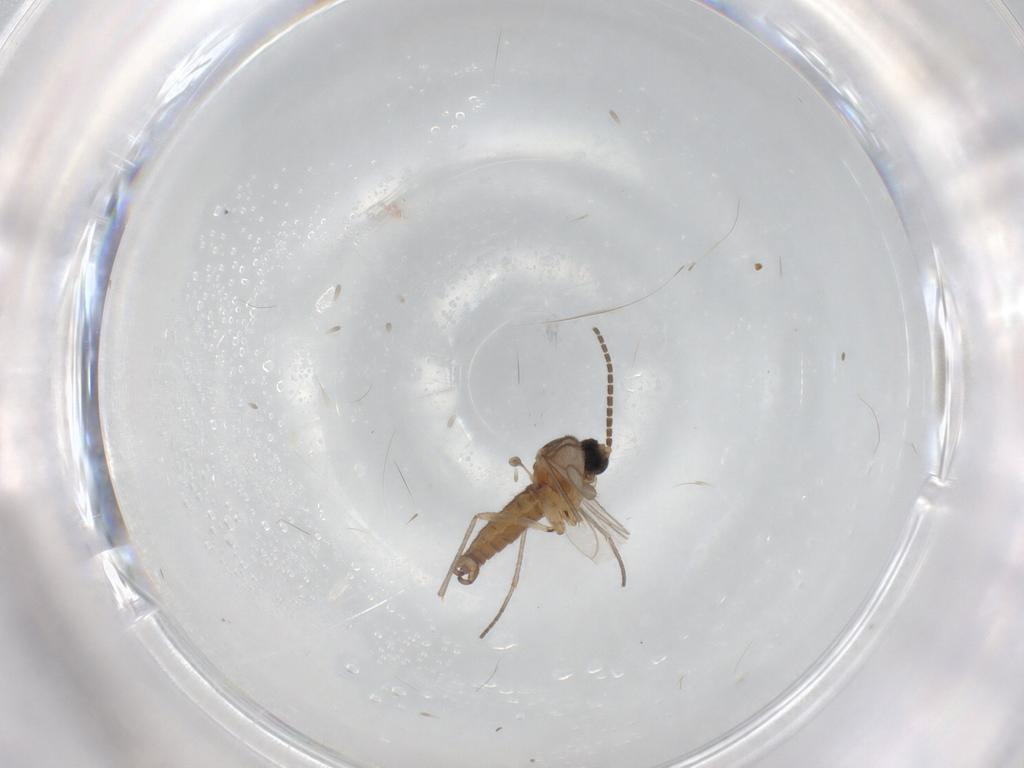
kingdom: Animalia
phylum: Arthropoda
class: Insecta
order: Diptera
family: Sciaridae
